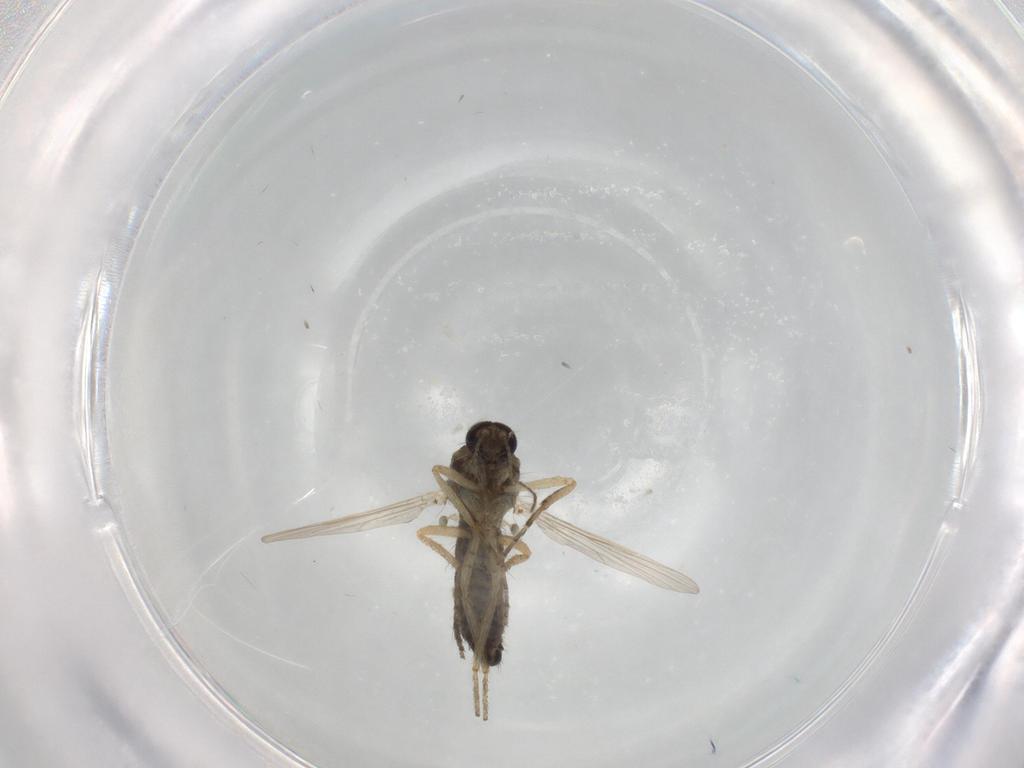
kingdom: Animalia
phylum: Arthropoda
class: Insecta
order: Diptera
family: Ceratopogonidae
